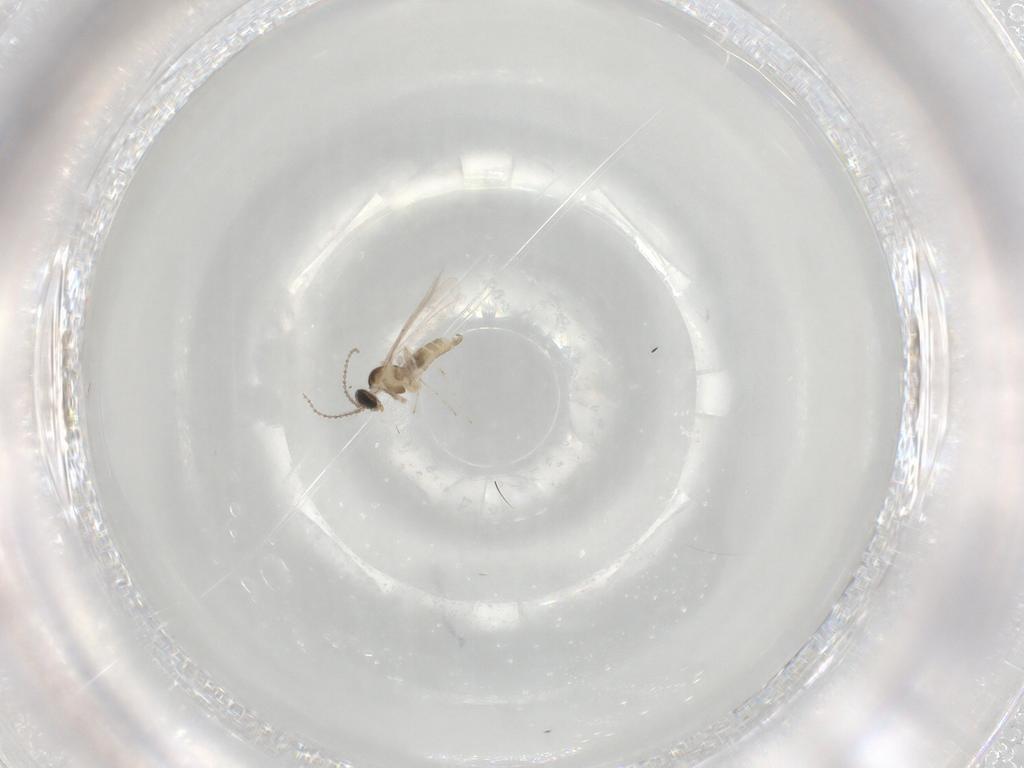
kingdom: Animalia
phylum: Arthropoda
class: Insecta
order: Diptera
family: Cecidomyiidae
